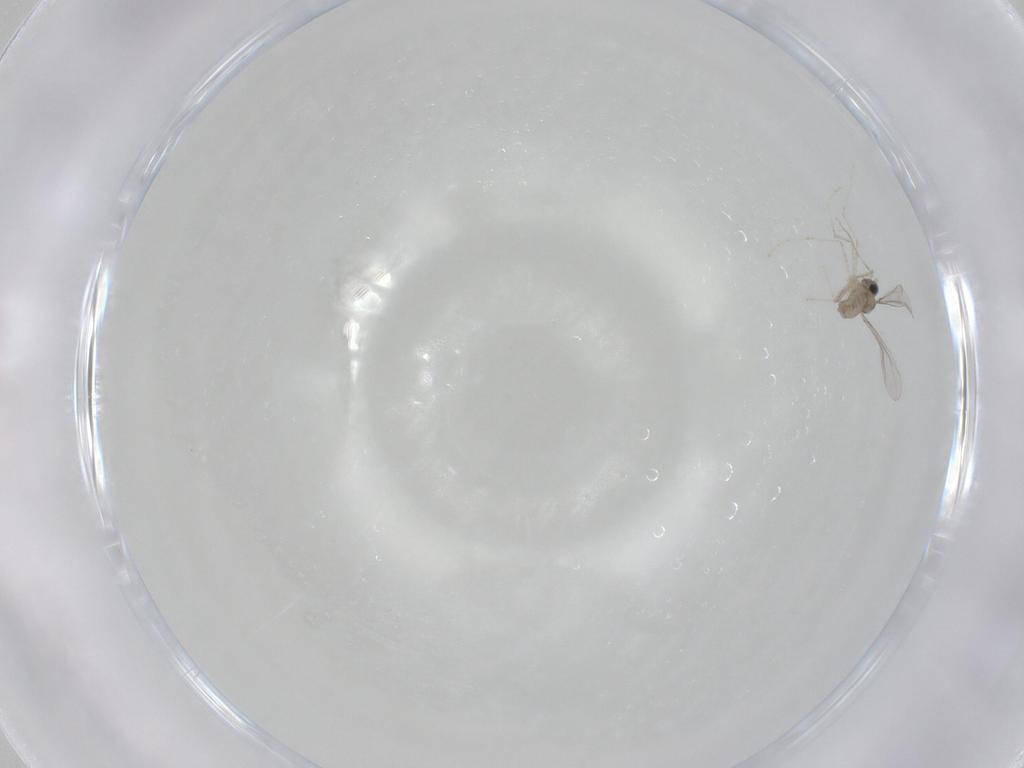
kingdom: Animalia
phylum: Arthropoda
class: Insecta
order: Diptera
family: Cecidomyiidae
